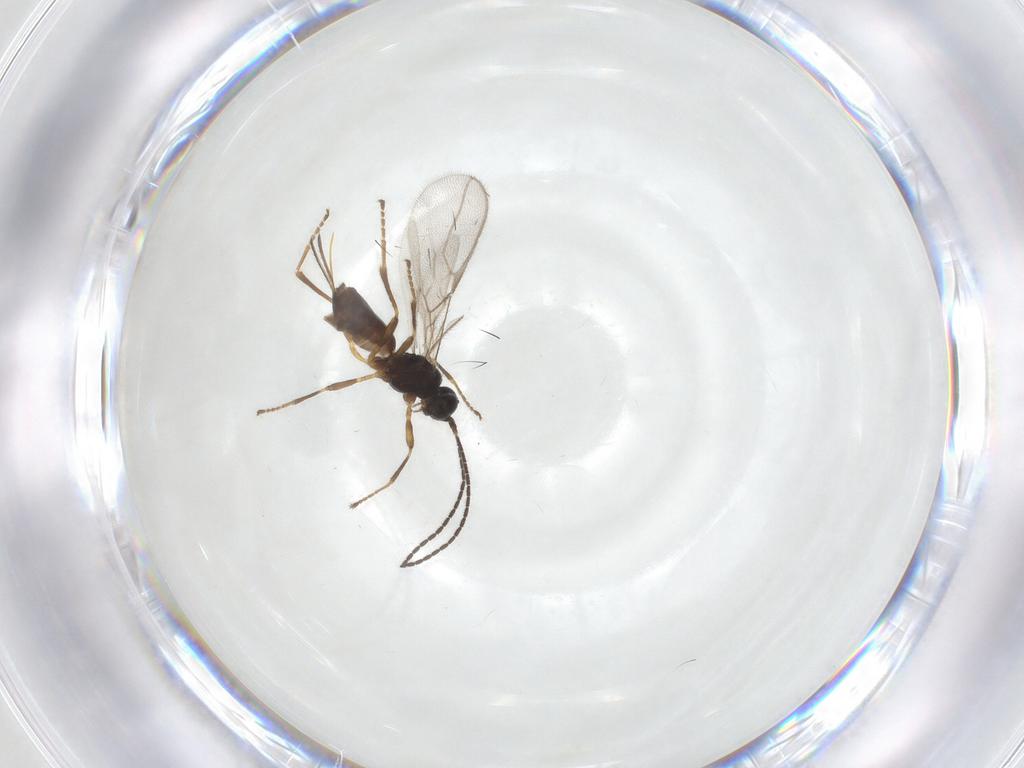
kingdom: Animalia
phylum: Arthropoda
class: Insecta
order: Hymenoptera
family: Braconidae
